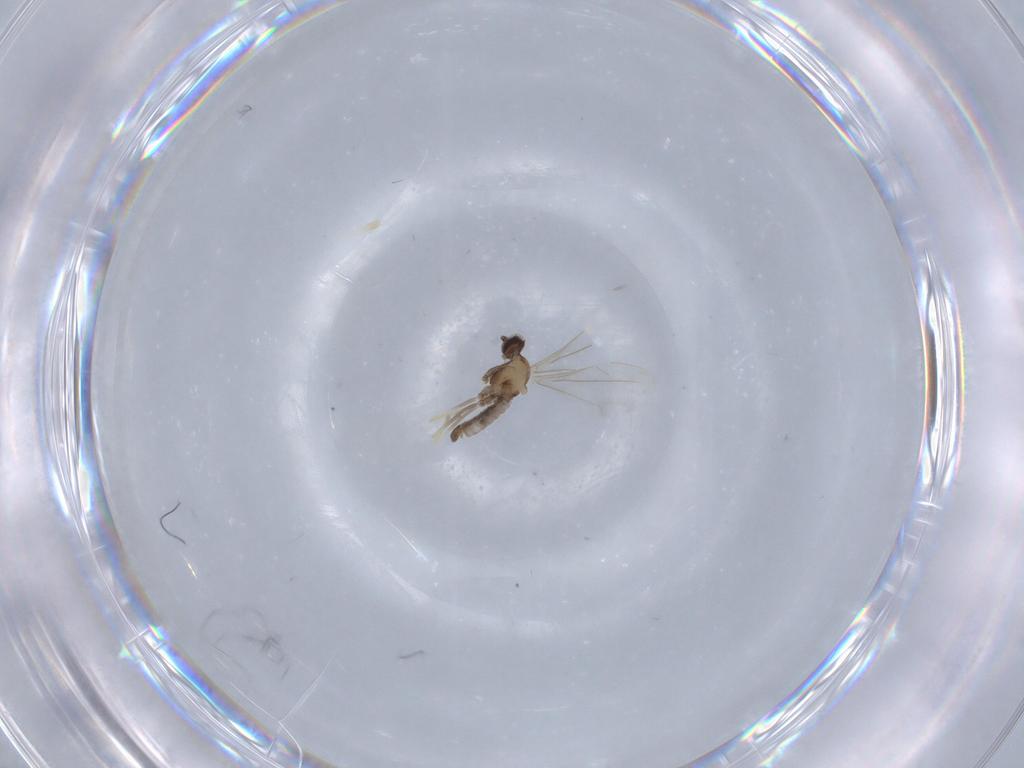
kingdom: Animalia
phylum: Arthropoda
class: Insecta
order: Diptera
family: Cecidomyiidae
